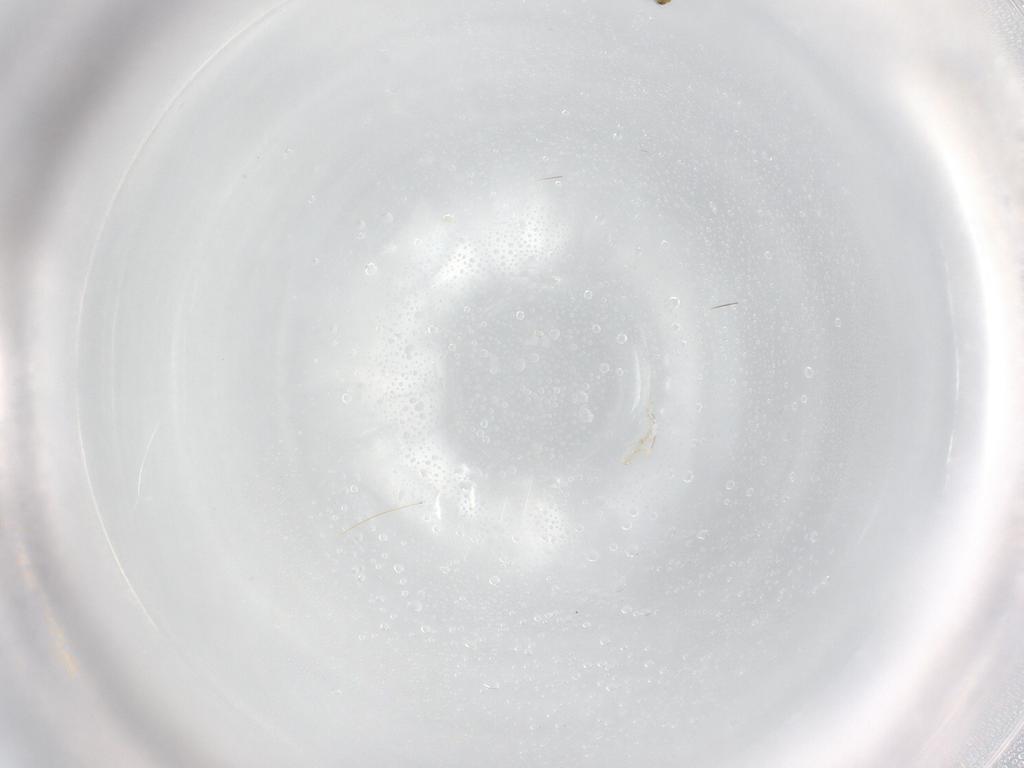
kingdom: Animalia
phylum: Arthropoda
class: Insecta
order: Hymenoptera
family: Trichogrammatidae
